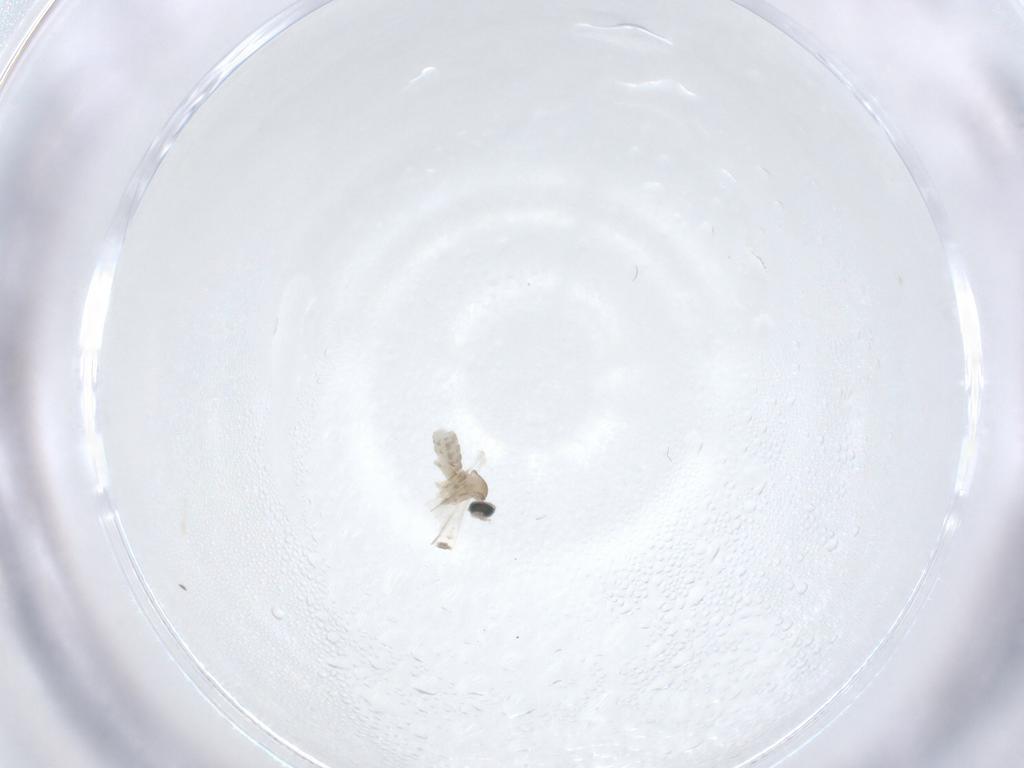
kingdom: Animalia
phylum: Arthropoda
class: Insecta
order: Diptera
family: Cecidomyiidae
